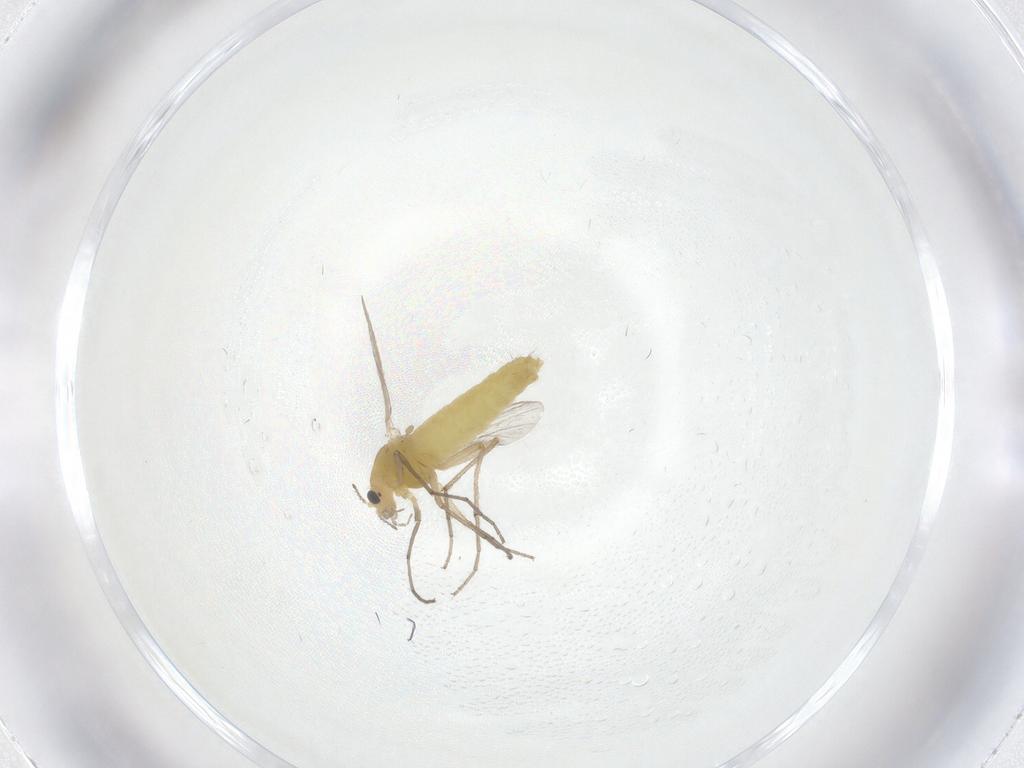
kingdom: Animalia
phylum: Arthropoda
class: Insecta
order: Diptera
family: Chironomidae
